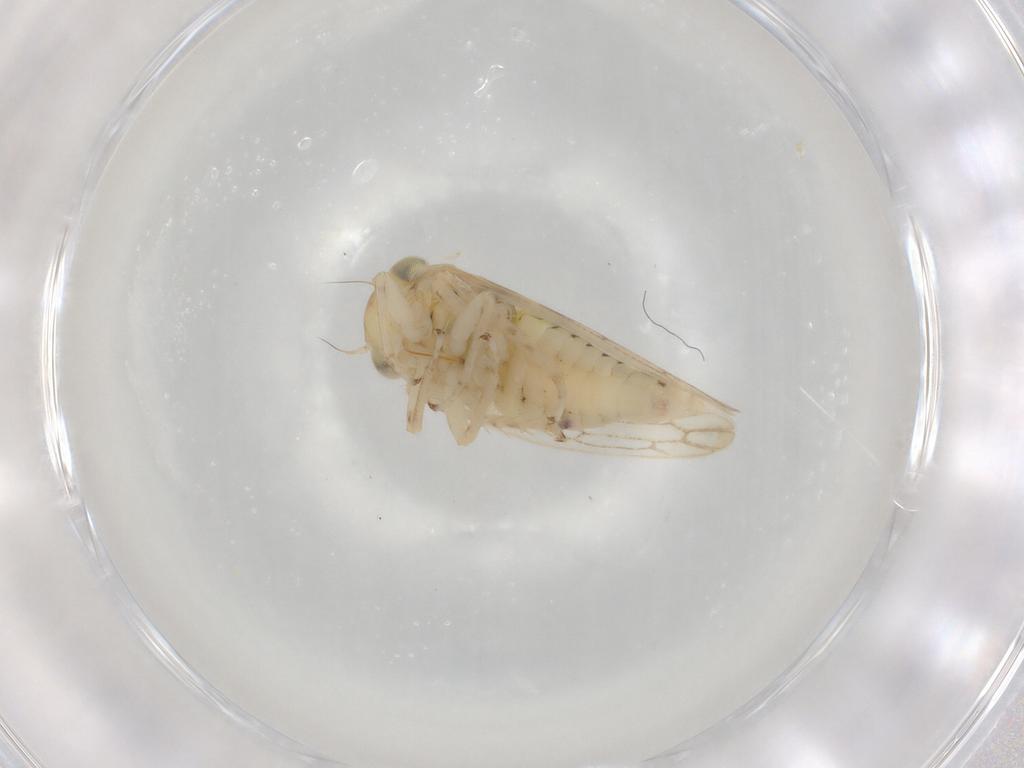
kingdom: Animalia
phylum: Arthropoda
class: Insecta
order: Hemiptera
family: Cicadellidae
